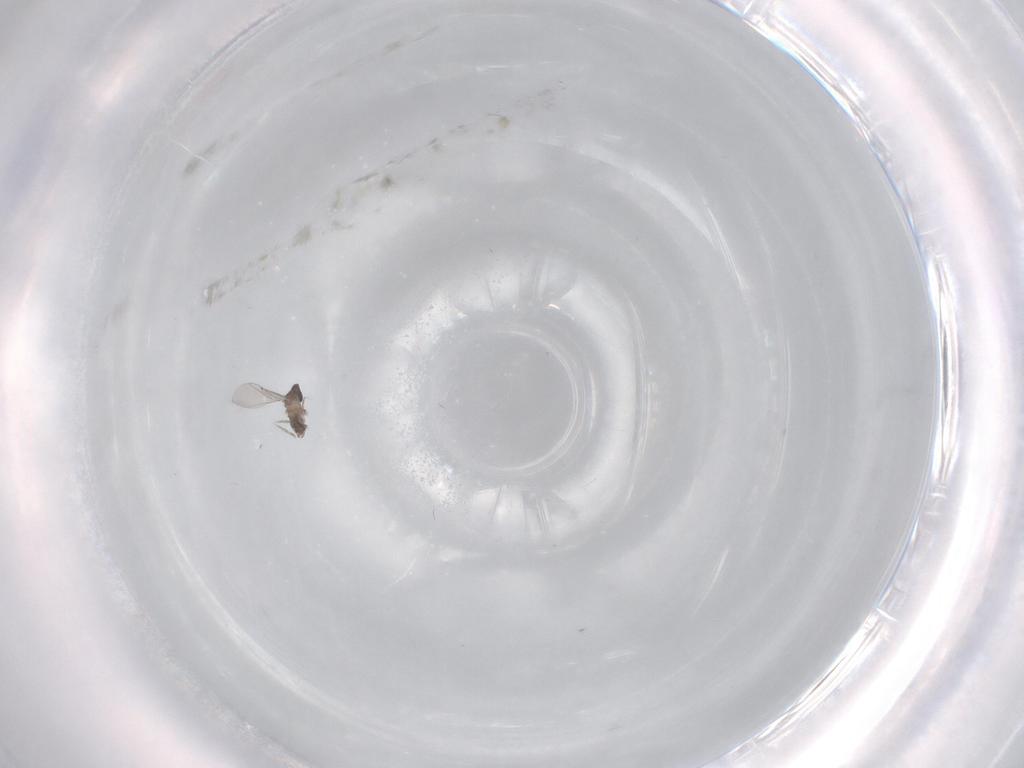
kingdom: Animalia
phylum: Arthropoda
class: Insecta
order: Diptera
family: Cecidomyiidae
